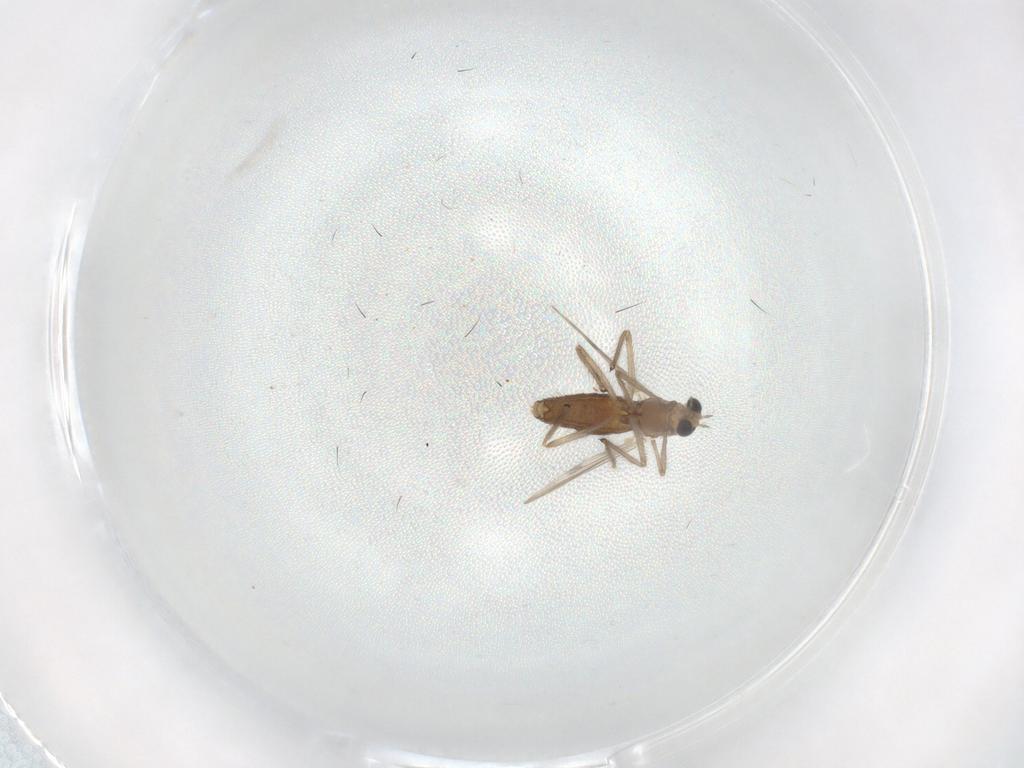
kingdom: Animalia
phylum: Arthropoda
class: Insecta
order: Diptera
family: Chironomidae
